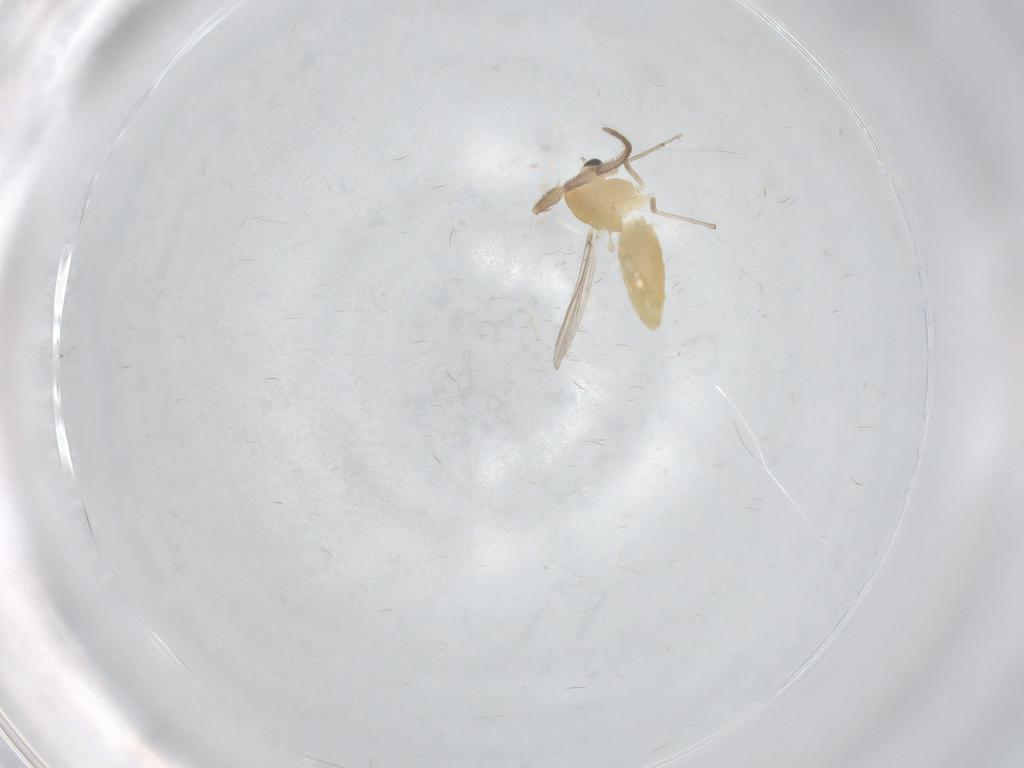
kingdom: Animalia
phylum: Arthropoda
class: Insecta
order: Diptera
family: Chironomidae
